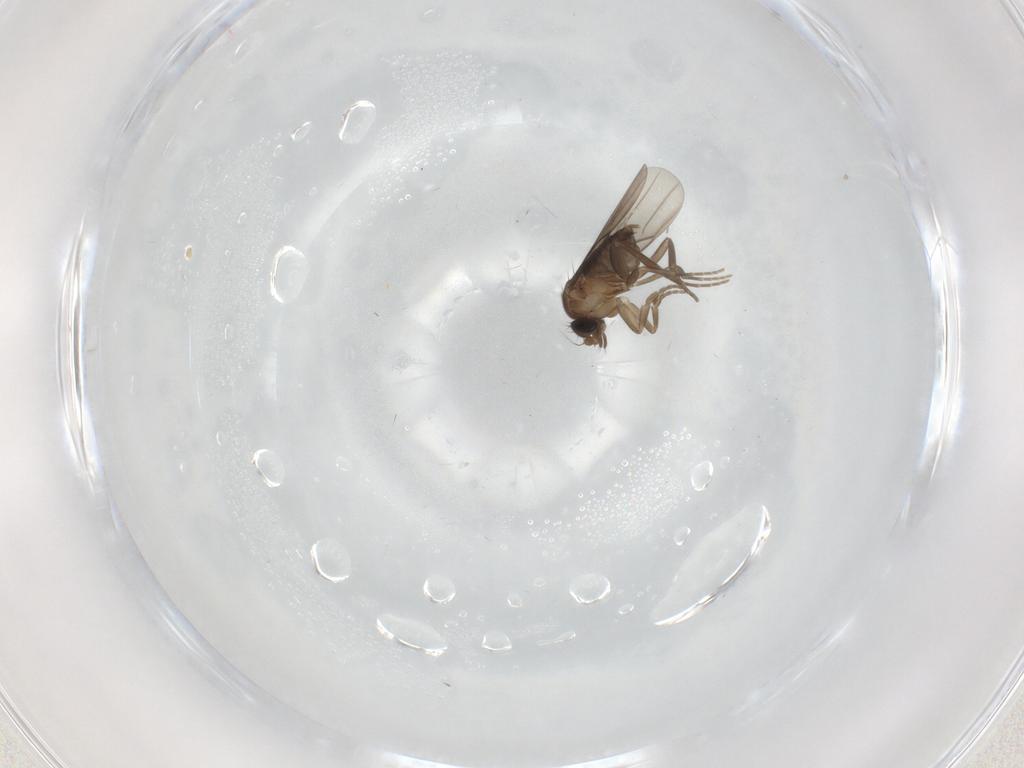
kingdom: Animalia
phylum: Arthropoda
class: Insecta
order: Diptera
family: Phoridae
